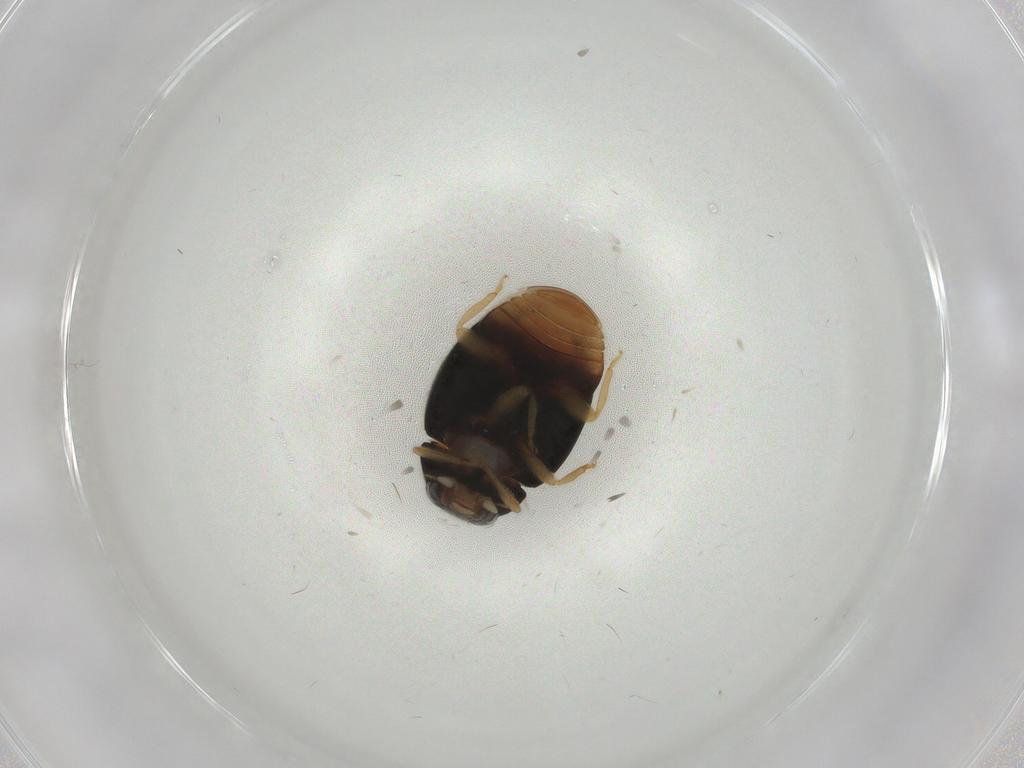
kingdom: Animalia
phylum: Arthropoda
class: Insecta
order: Coleoptera
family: Coccinellidae
